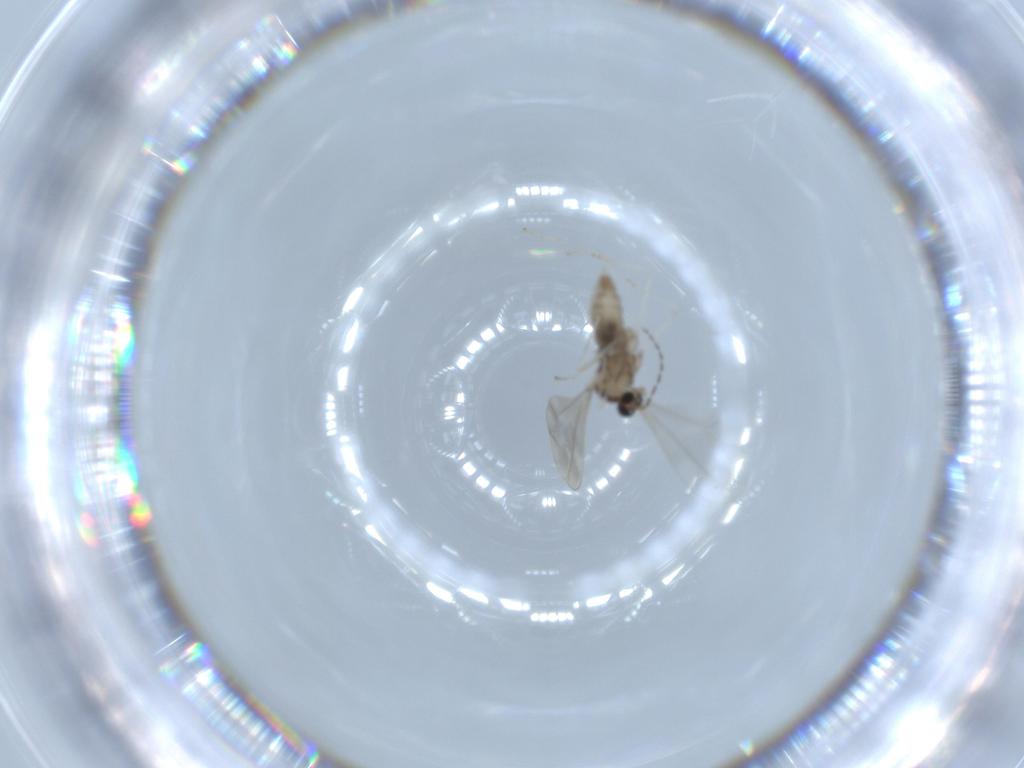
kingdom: Animalia
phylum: Arthropoda
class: Insecta
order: Diptera
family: Cecidomyiidae
